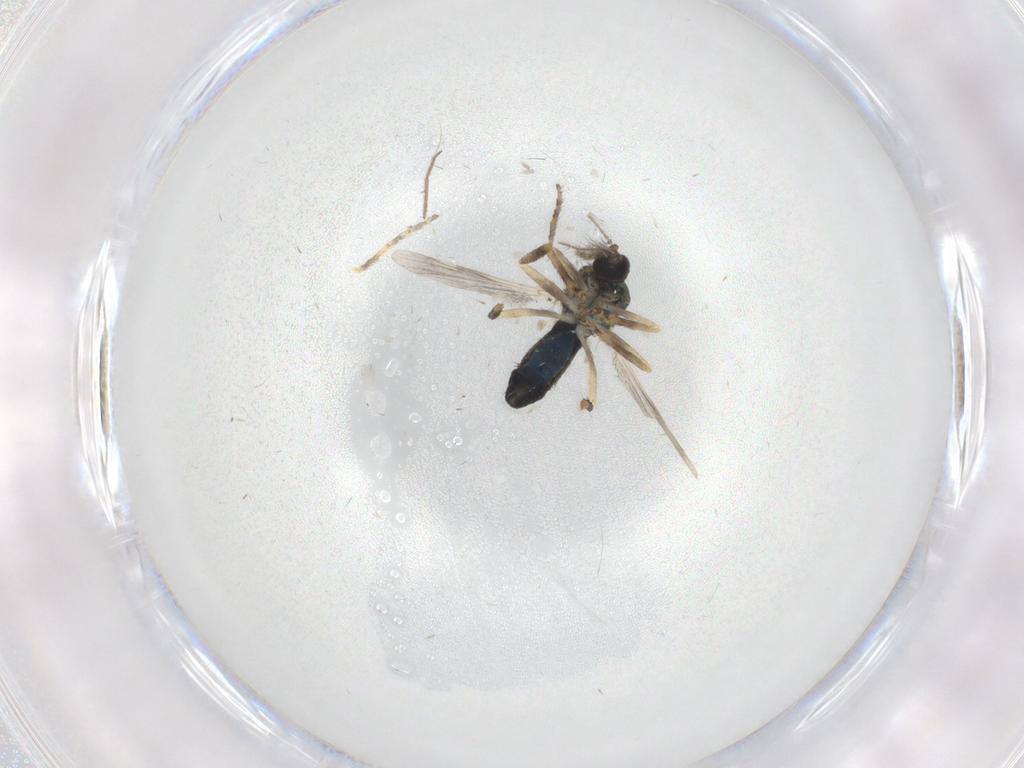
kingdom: Animalia
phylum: Arthropoda
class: Insecta
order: Diptera
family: Ceratopogonidae
